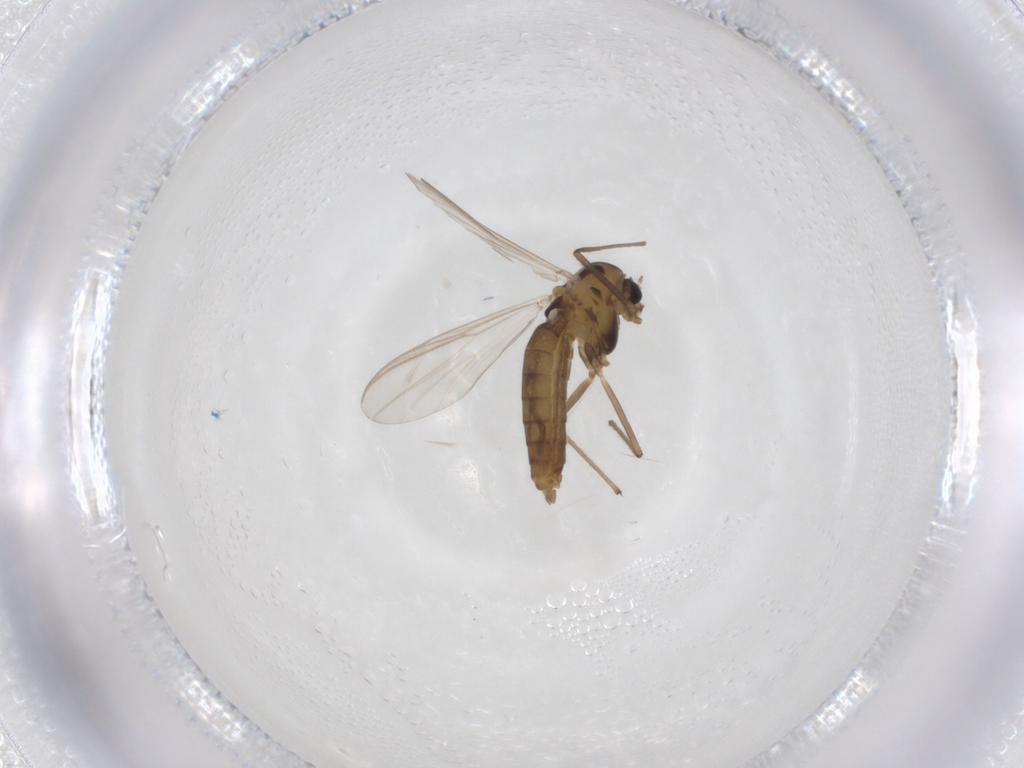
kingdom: Animalia
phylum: Arthropoda
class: Insecta
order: Diptera
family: Chironomidae
